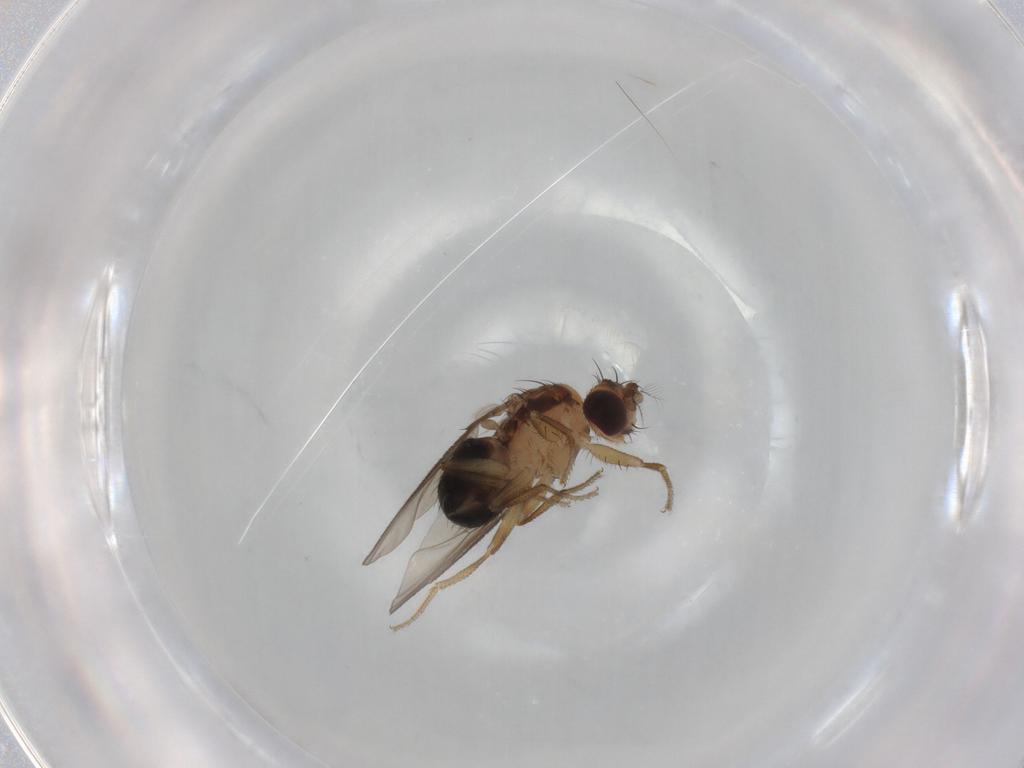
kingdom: Animalia
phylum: Arthropoda
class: Insecta
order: Diptera
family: Drosophilidae
